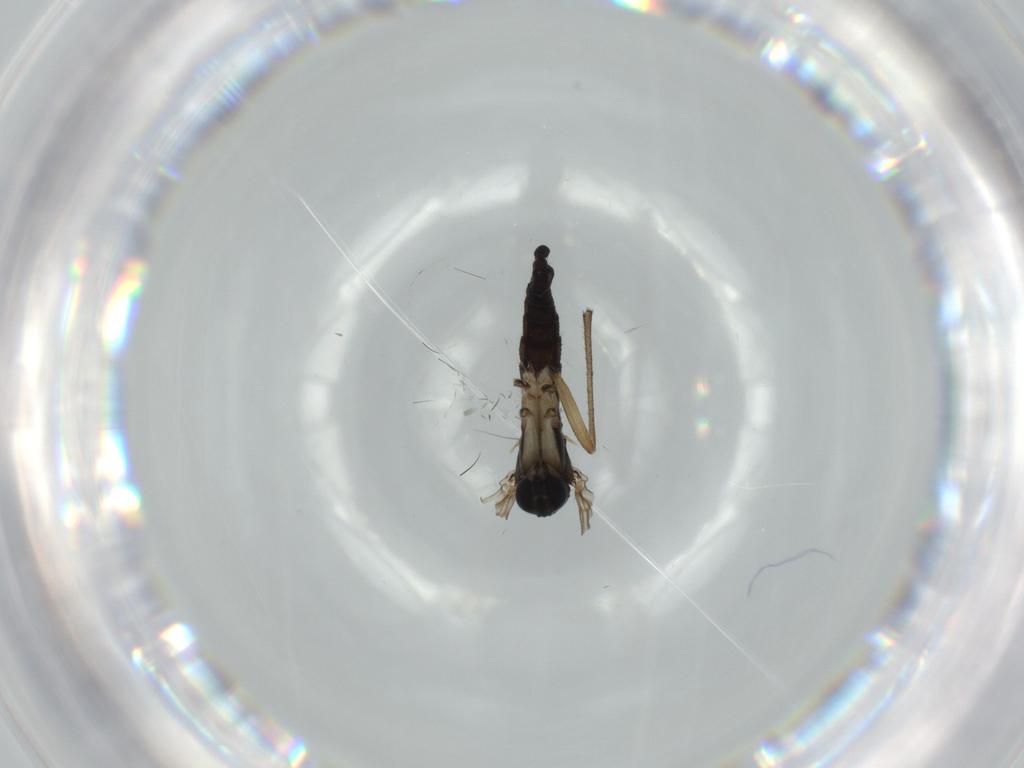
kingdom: Animalia
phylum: Arthropoda
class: Insecta
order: Diptera
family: Sciaridae
